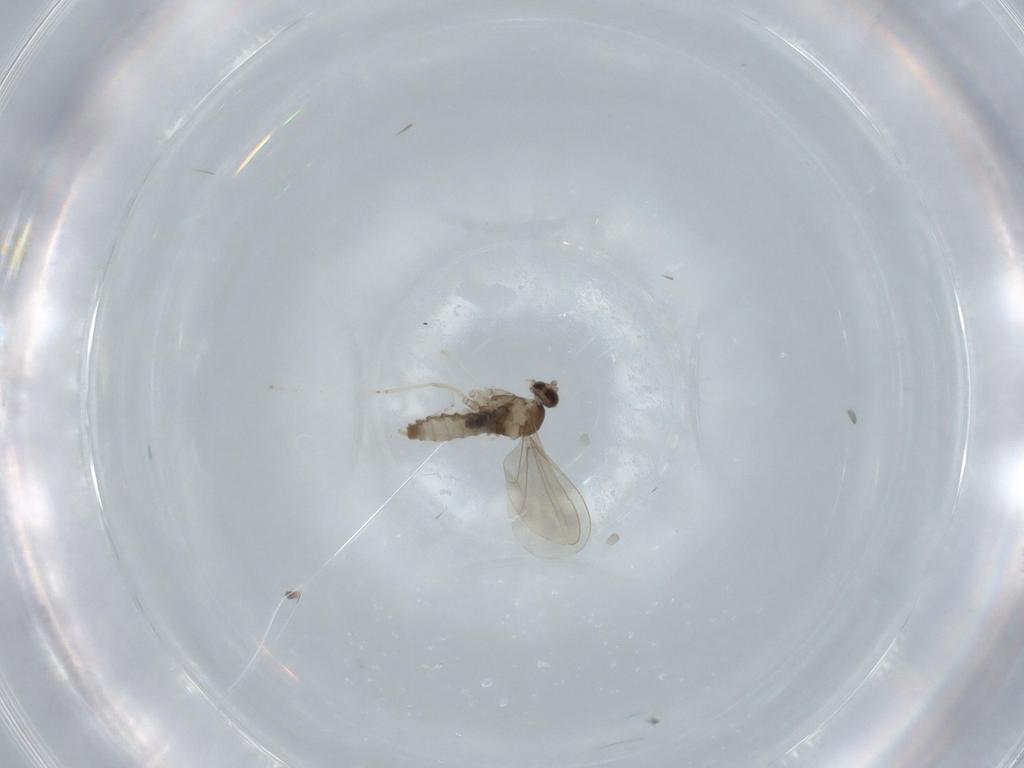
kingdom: Animalia
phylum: Arthropoda
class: Insecta
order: Diptera
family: Cecidomyiidae
